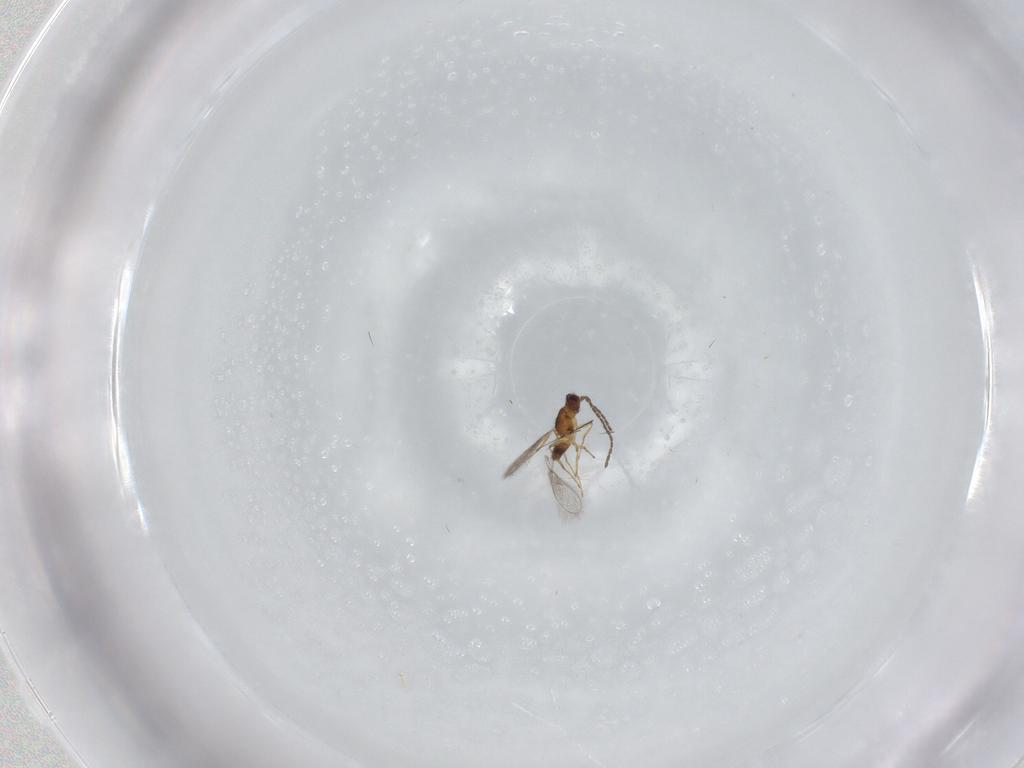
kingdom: Animalia
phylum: Arthropoda
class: Insecta
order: Hymenoptera
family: Mymaridae
